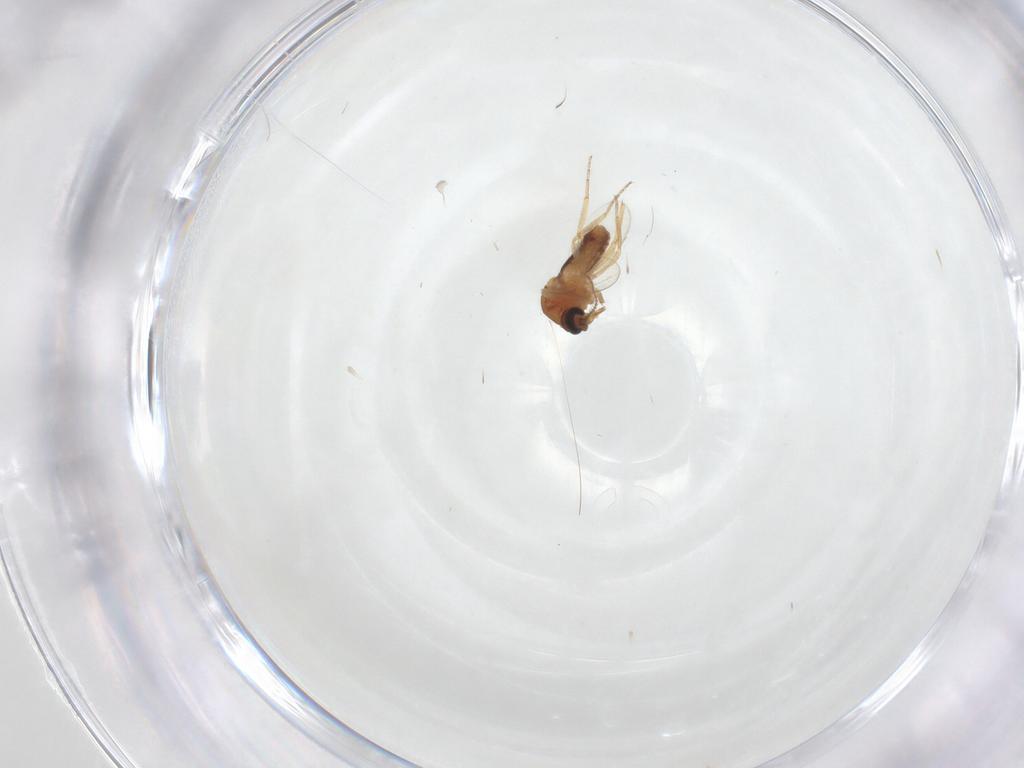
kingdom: Animalia
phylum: Arthropoda
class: Insecta
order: Diptera
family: Ceratopogonidae
